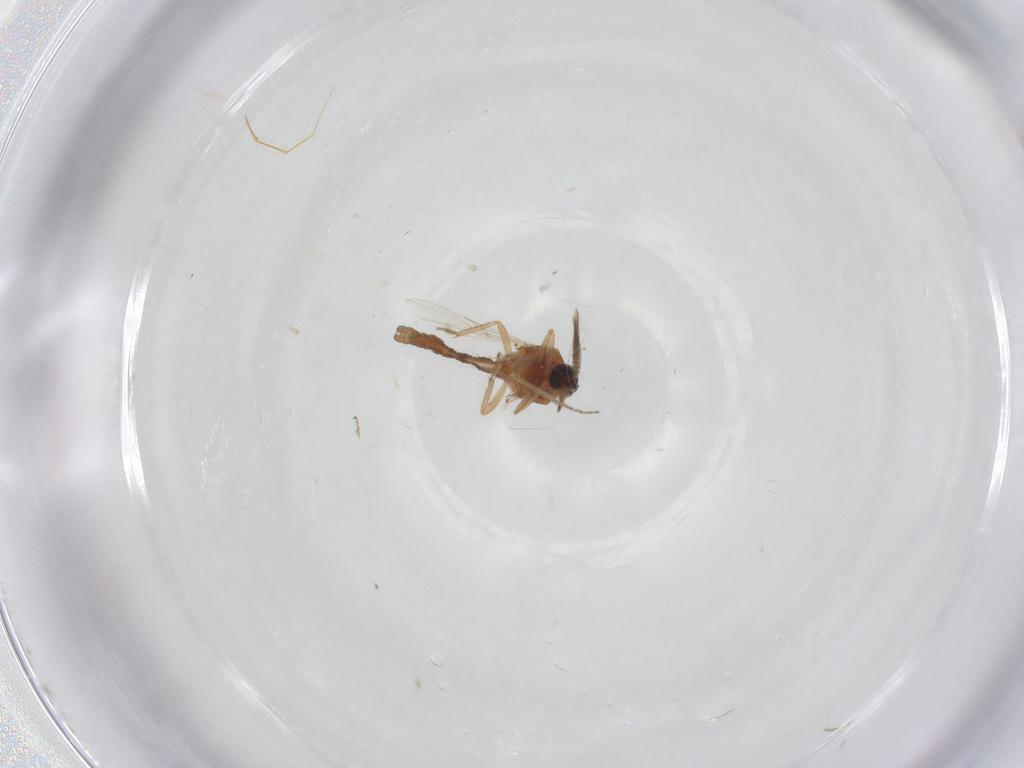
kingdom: Animalia
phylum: Arthropoda
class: Insecta
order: Diptera
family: Ceratopogonidae
